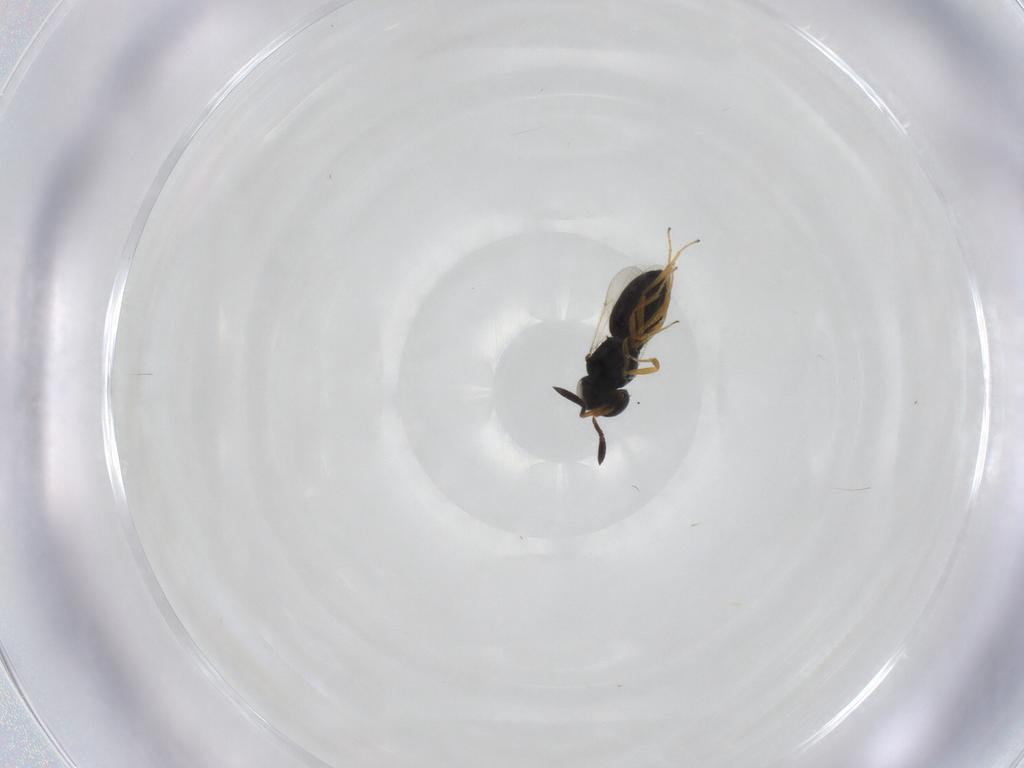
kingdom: Animalia
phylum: Arthropoda
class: Insecta
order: Hymenoptera
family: Scelionidae
